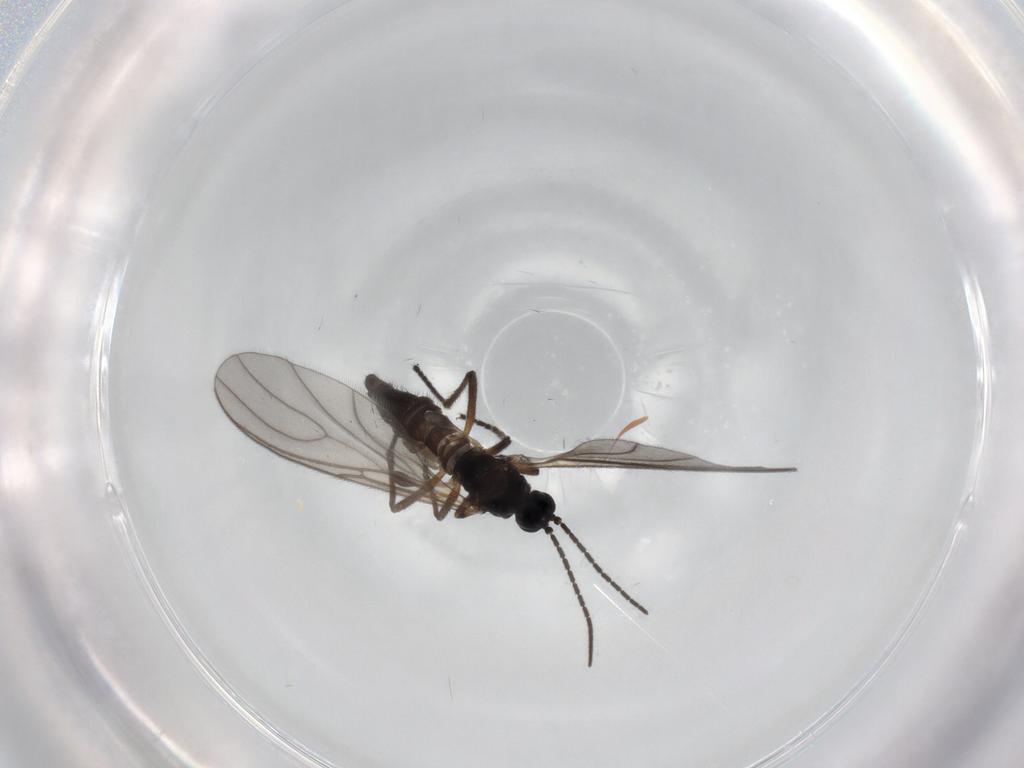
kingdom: Animalia
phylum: Arthropoda
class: Insecta
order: Diptera
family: Sciaridae
